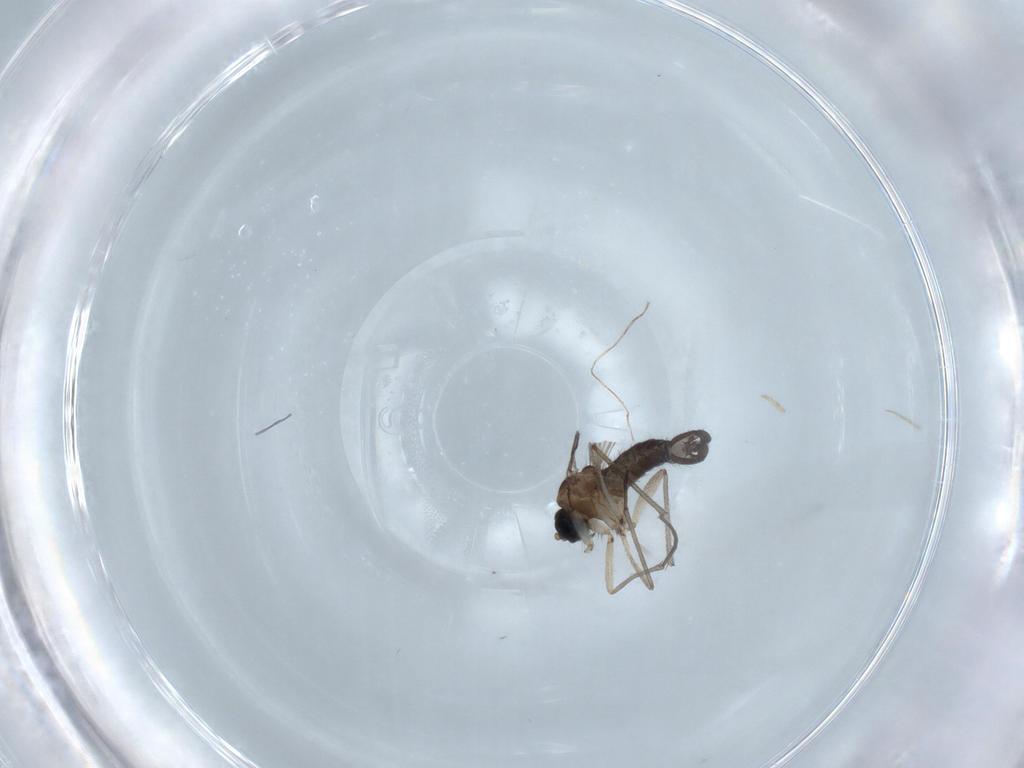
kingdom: Animalia
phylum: Arthropoda
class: Insecta
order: Diptera
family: Sciaridae
